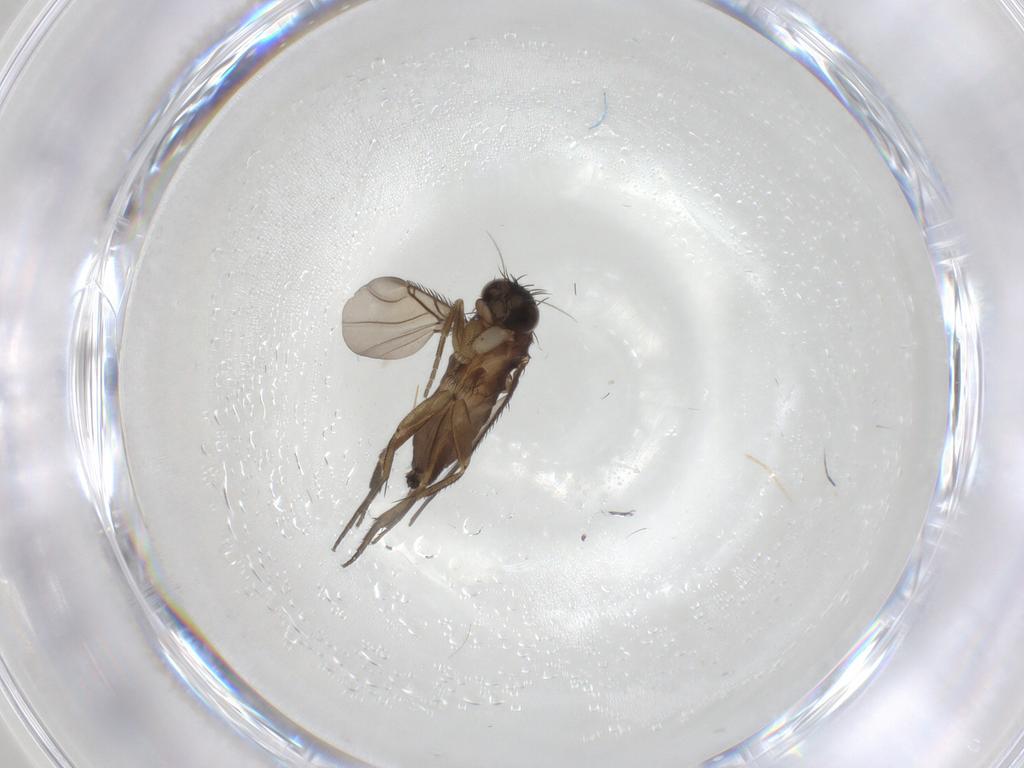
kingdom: Animalia
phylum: Arthropoda
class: Insecta
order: Diptera
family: Phoridae
